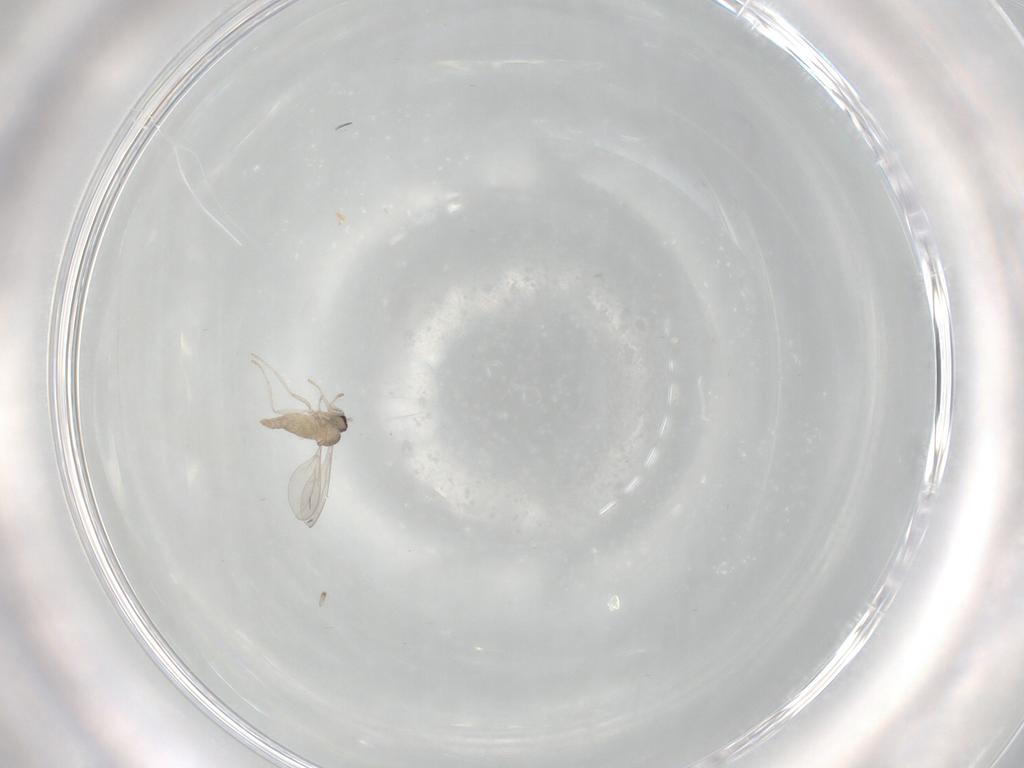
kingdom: Animalia
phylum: Arthropoda
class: Insecta
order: Diptera
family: Cecidomyiidae
